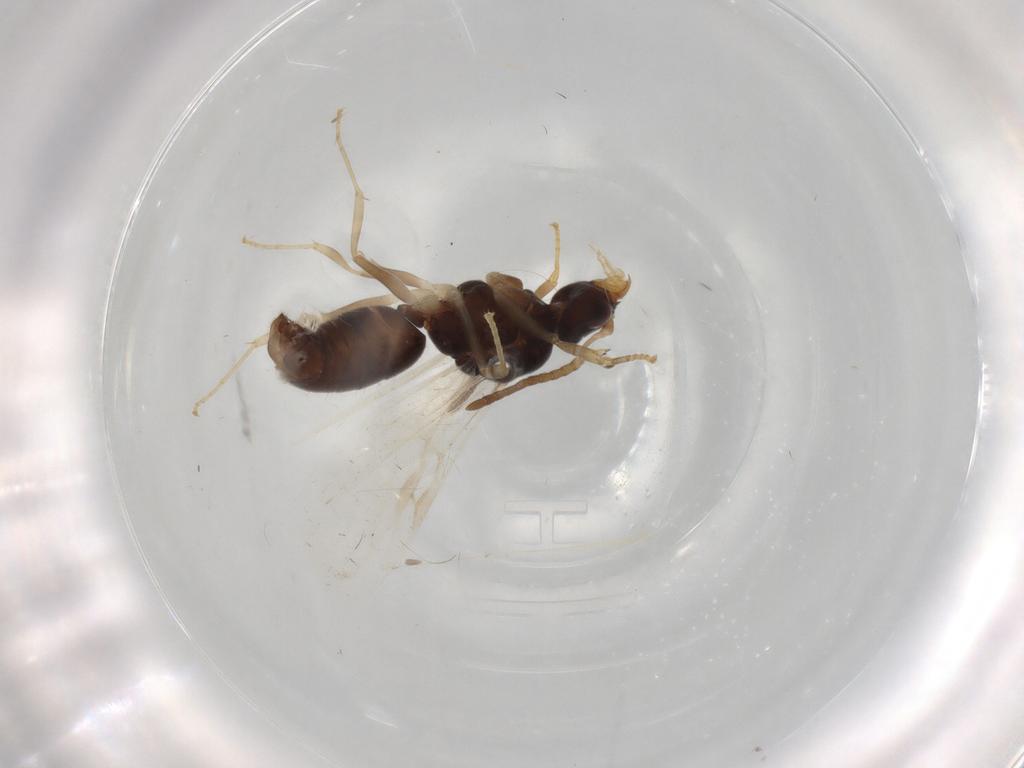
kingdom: Animalia
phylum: Arthropoda
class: Insecta
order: Hymenoptera
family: Formicidae
